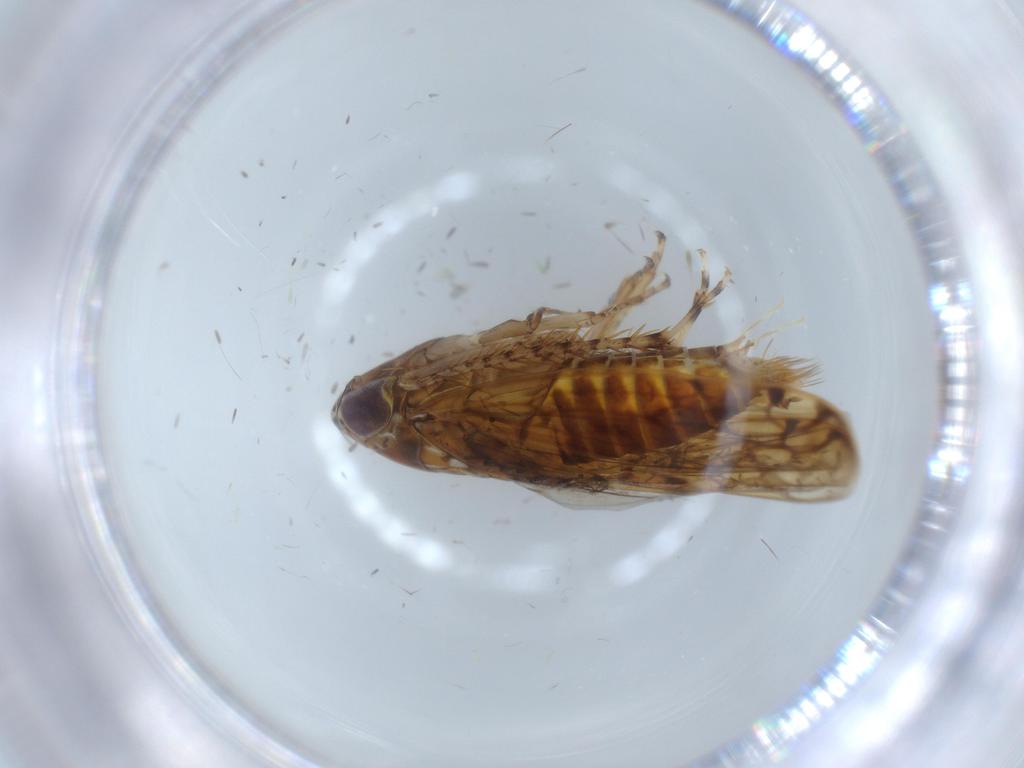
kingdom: Animalia
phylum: Arthropoda
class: Insecta
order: Hemiptera
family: Cicadellidae
